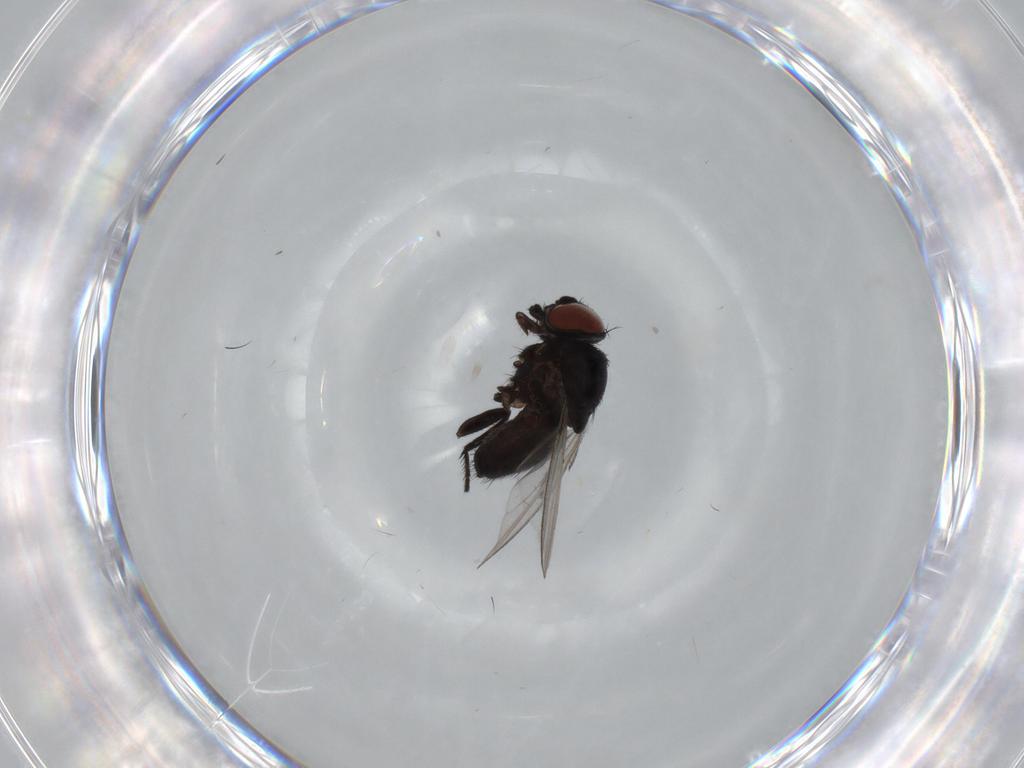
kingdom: Animalia
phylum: Arthropoda
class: Insecta
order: Diptera
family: Milichiidae
